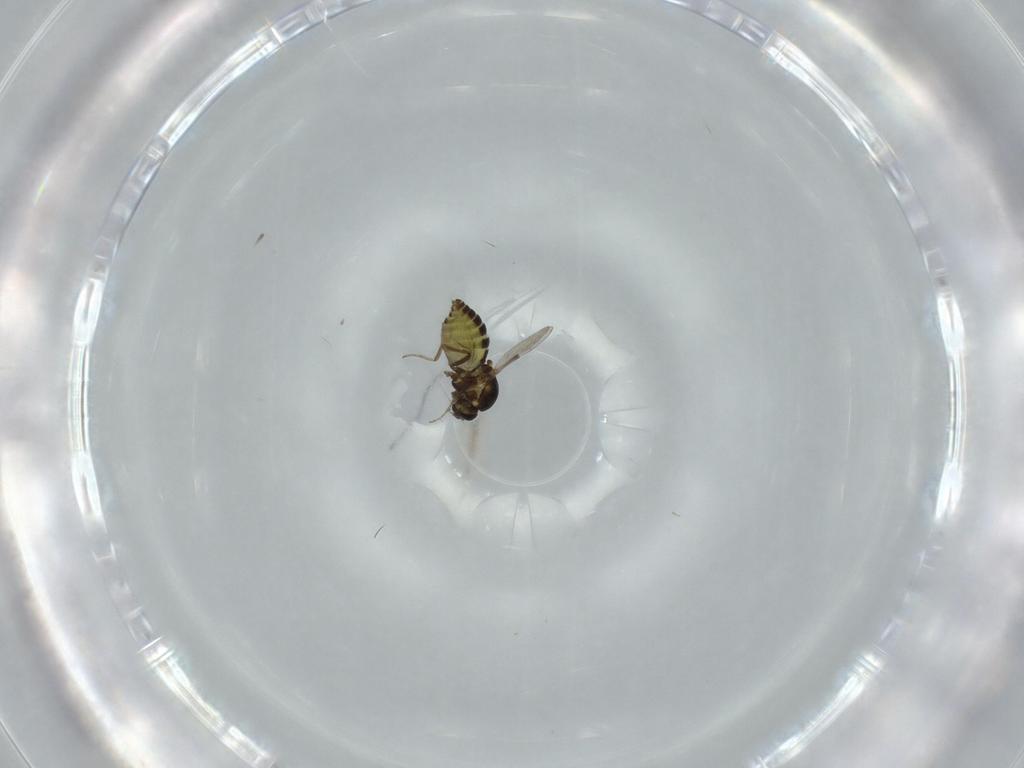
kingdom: Animalia
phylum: Arthropoda
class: Insecta
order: Diptera
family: Ceratopogonidae
